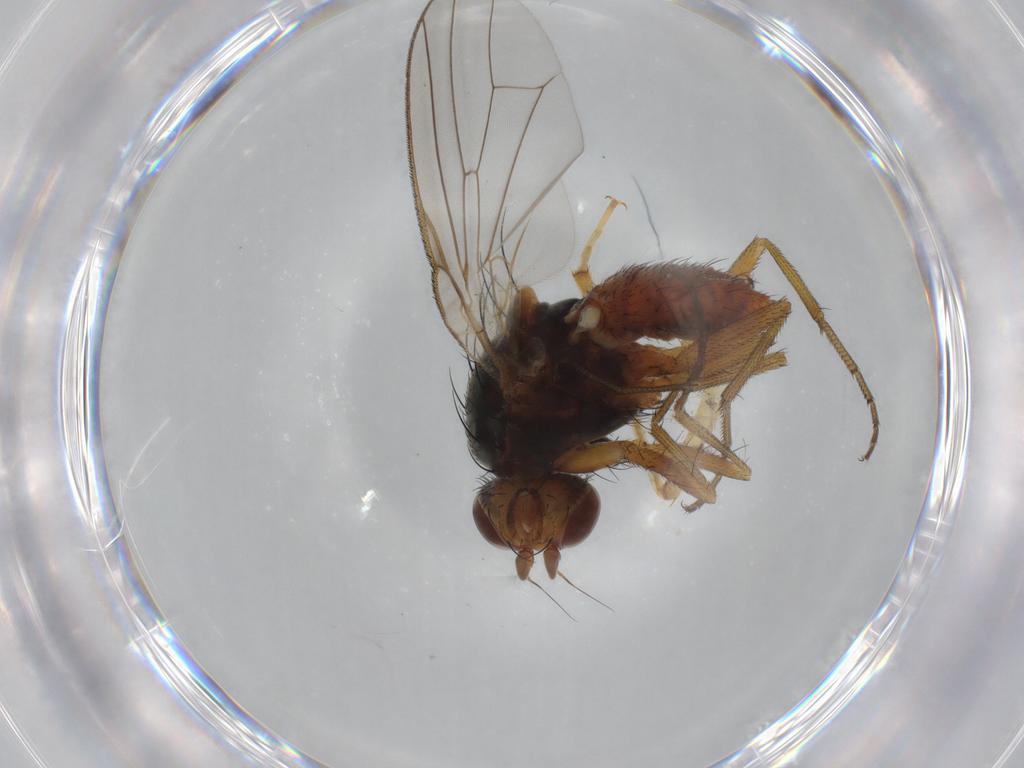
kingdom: Animalia
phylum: Arthropoda
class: Insecta
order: Diptera
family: Heleomyzidae
